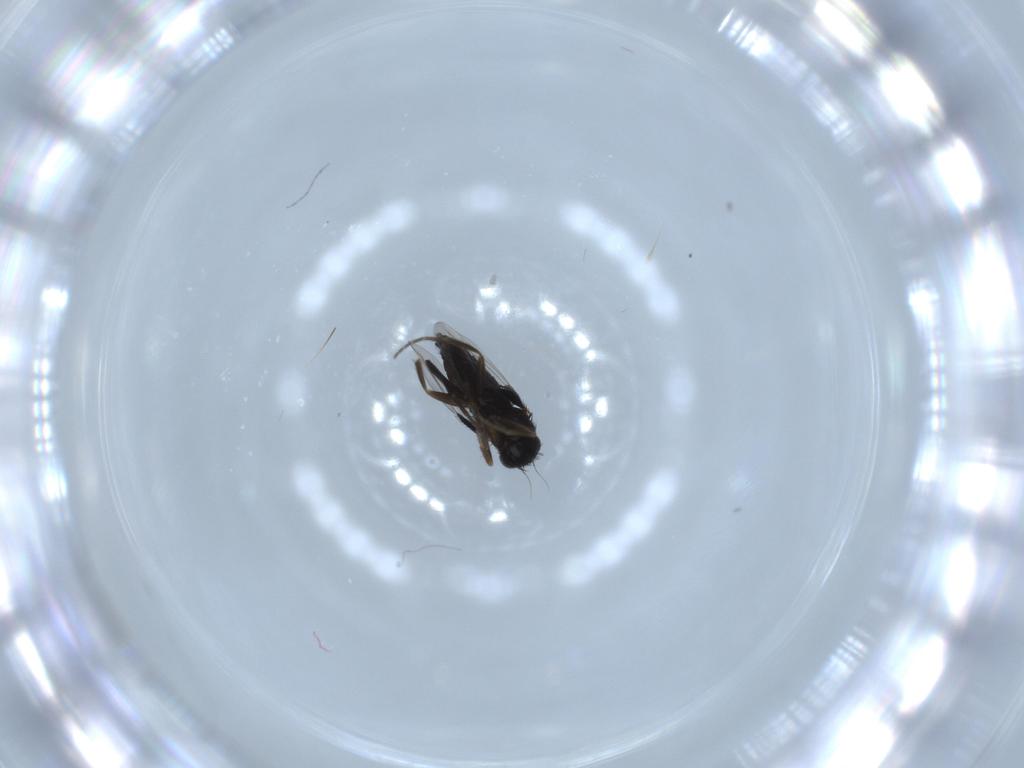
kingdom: Animalia
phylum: Arthropoda
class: Insecta
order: Diptera
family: Phoridae
